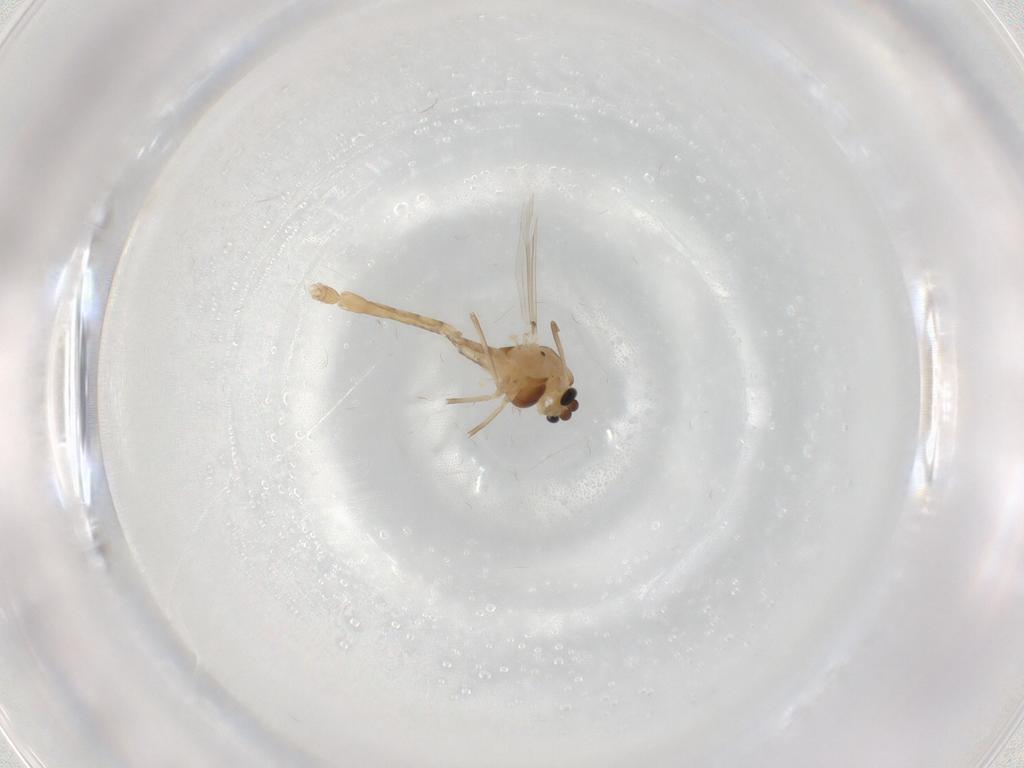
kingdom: Animalia
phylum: Arthropoda
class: Insecta
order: Diptera
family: Chironomidae
